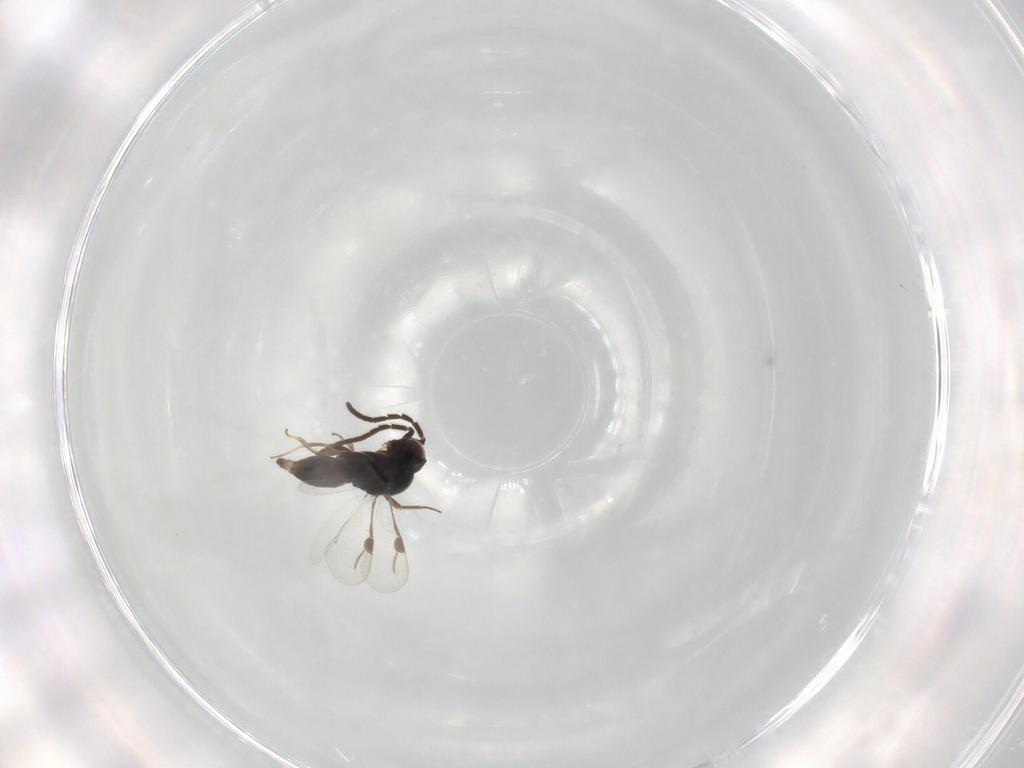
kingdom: Animalia
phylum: Arthropoda
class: Insecta
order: Hymenoptera
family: Megaspilidae
